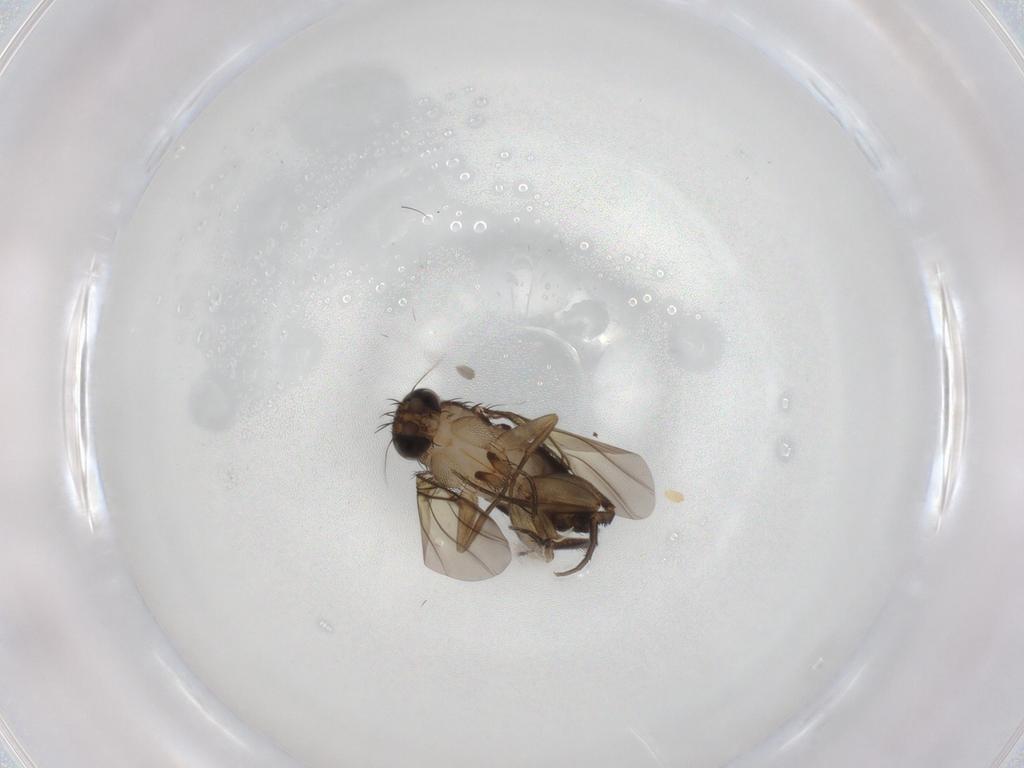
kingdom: Animalia
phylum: Arthropoda
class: Insecta
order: Diptera
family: Phoridae
